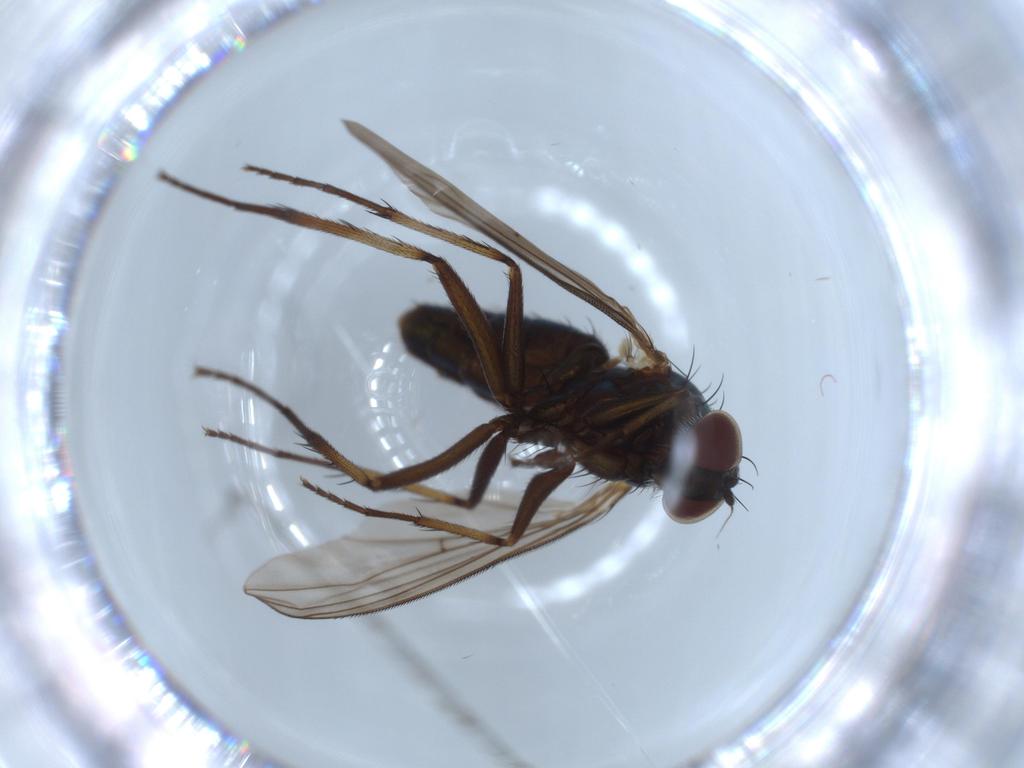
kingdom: Animalia
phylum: Arthropoda
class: Insecta
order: Diptera
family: Dolichopodidae
